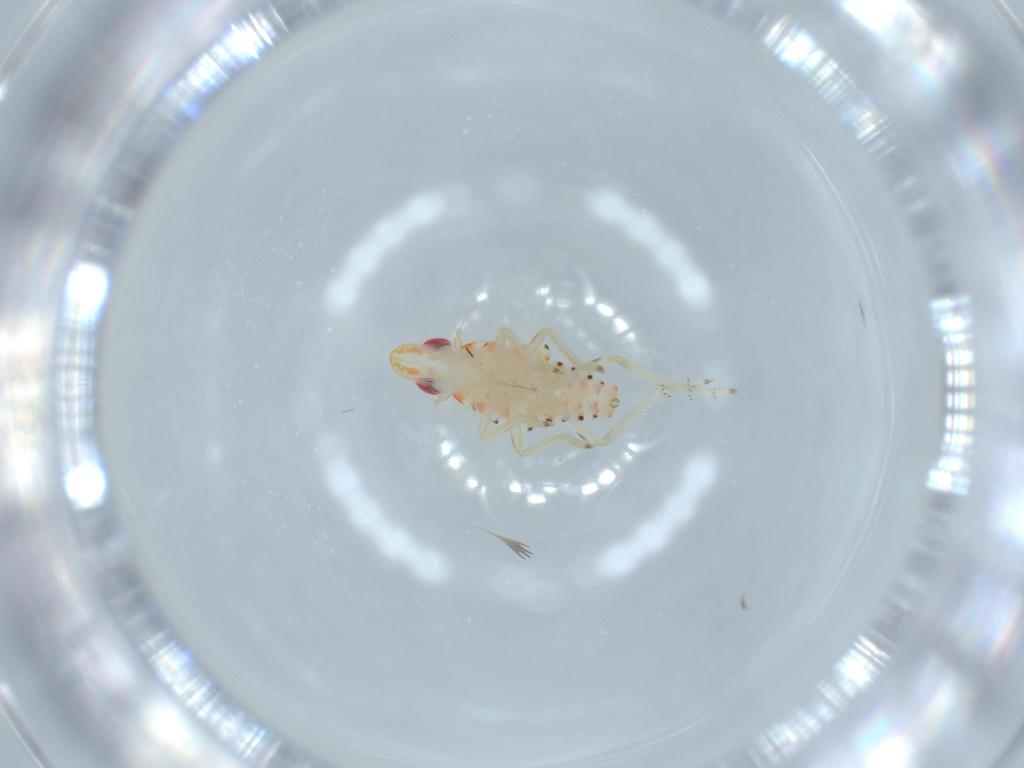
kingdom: Animalia
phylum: Arthropoda
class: Insecta
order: Hemiptera
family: Tropiduchidae
